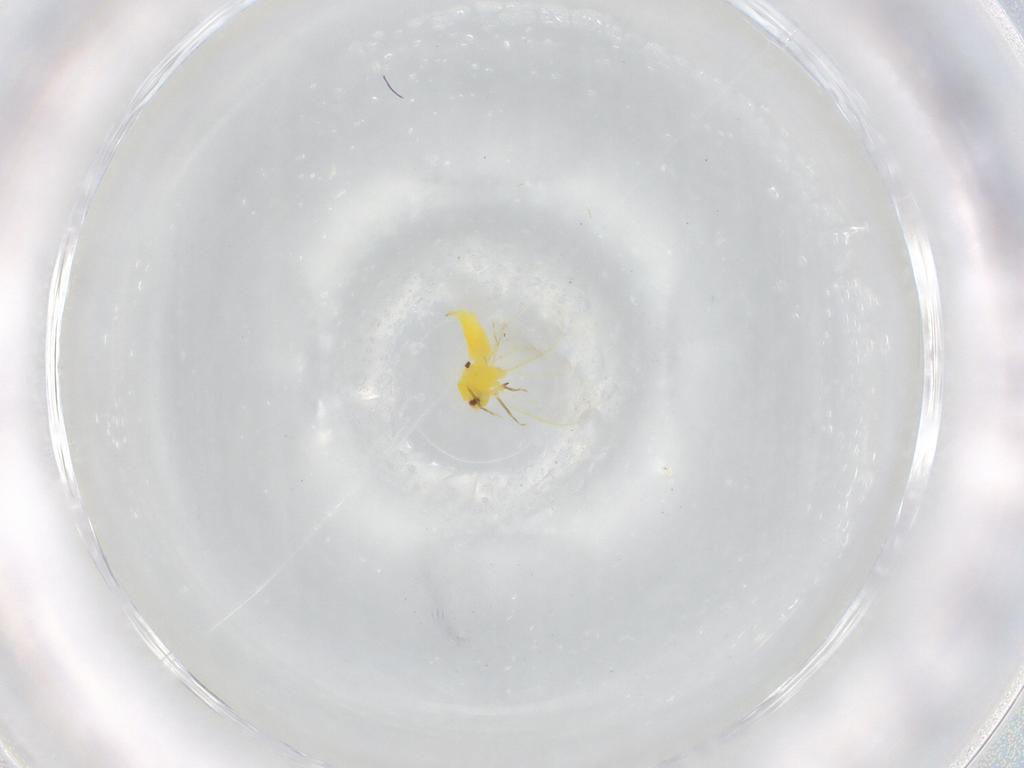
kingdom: Animalia
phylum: Arthropoda
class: Insecta
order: Hemiptera
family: Aleyrodidae
